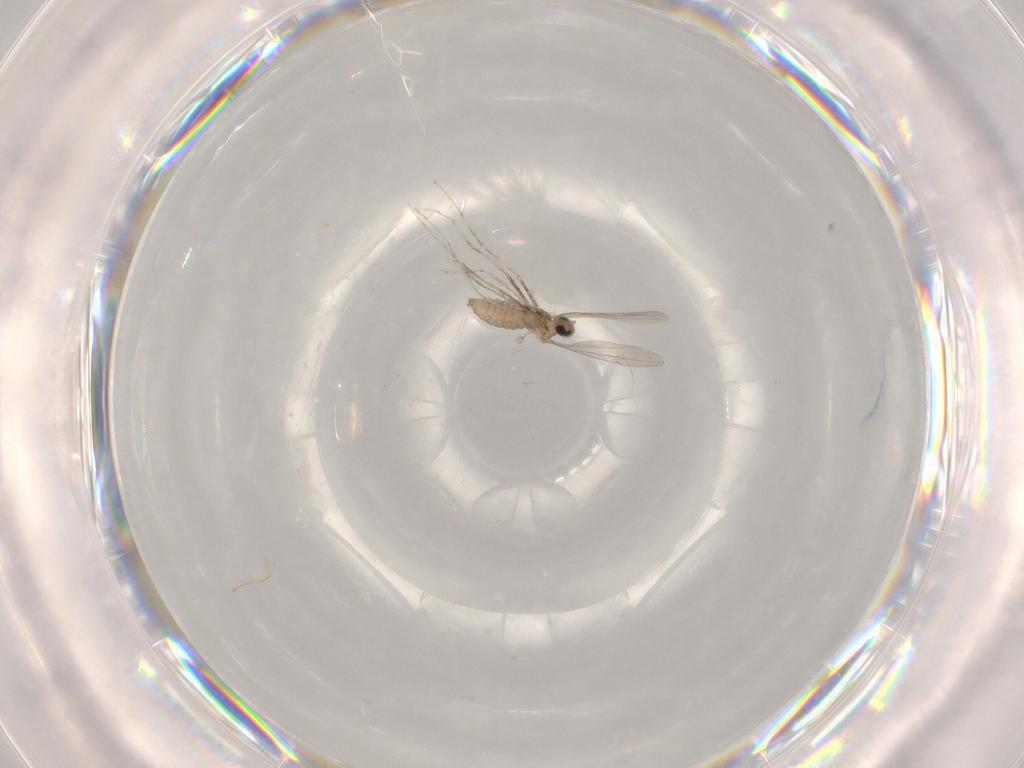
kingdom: Animalia
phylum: Arthropoda
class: Insecta
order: Diptera
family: Cecidomyiidae
